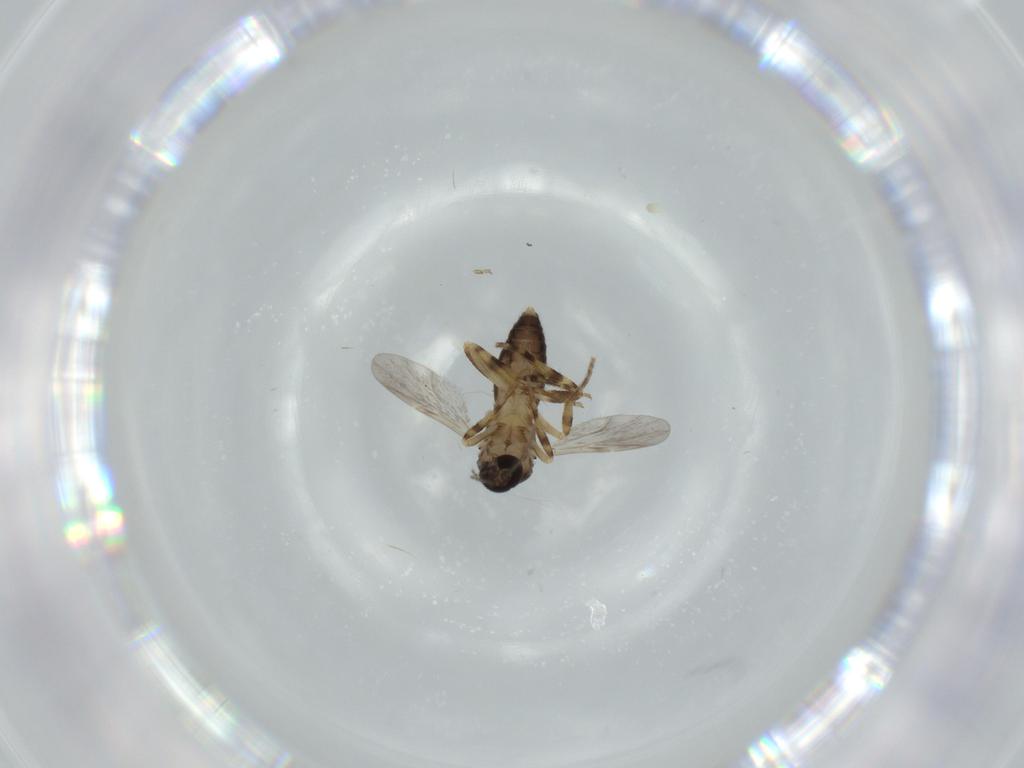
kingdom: Animalia
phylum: Arthropoda
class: Insecta
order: Diptera
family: Ceratopogonidae
